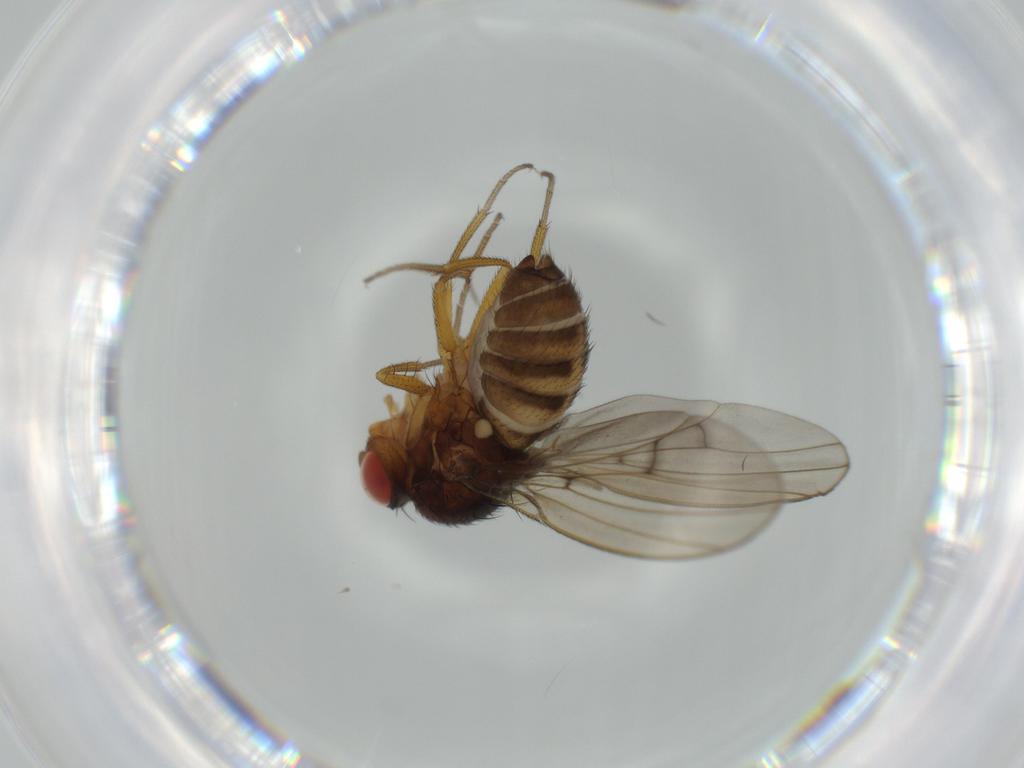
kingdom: Animalia
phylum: Arthropoda
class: Insecta
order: Diptera
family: Drosophilidae
